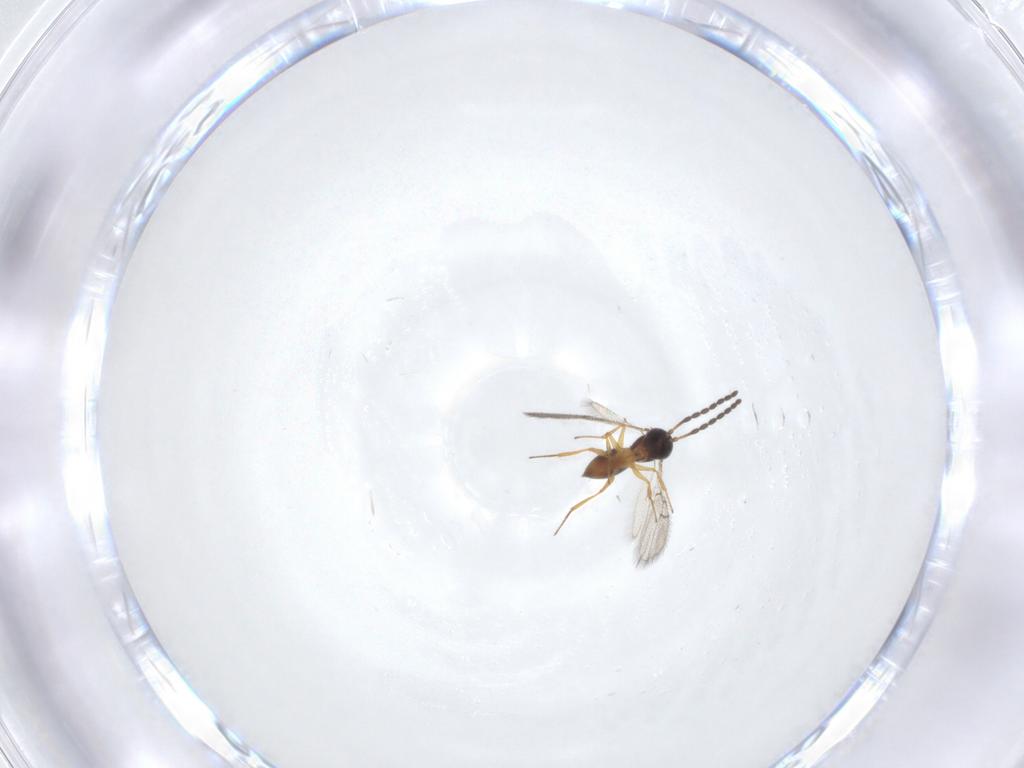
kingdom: Animalia
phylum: Arthropoda
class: Insecta
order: Hymenoptera
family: Figitidae
